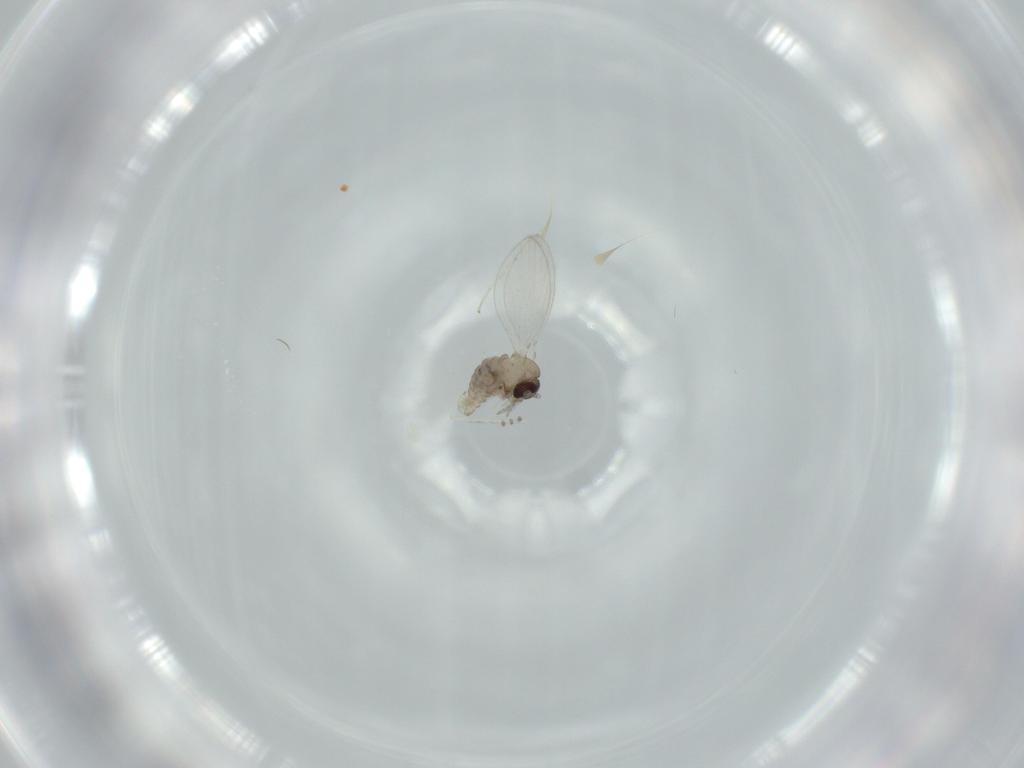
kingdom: Animalia
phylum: Arthropoda
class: Insecta
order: Diptera
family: Psychodidae
